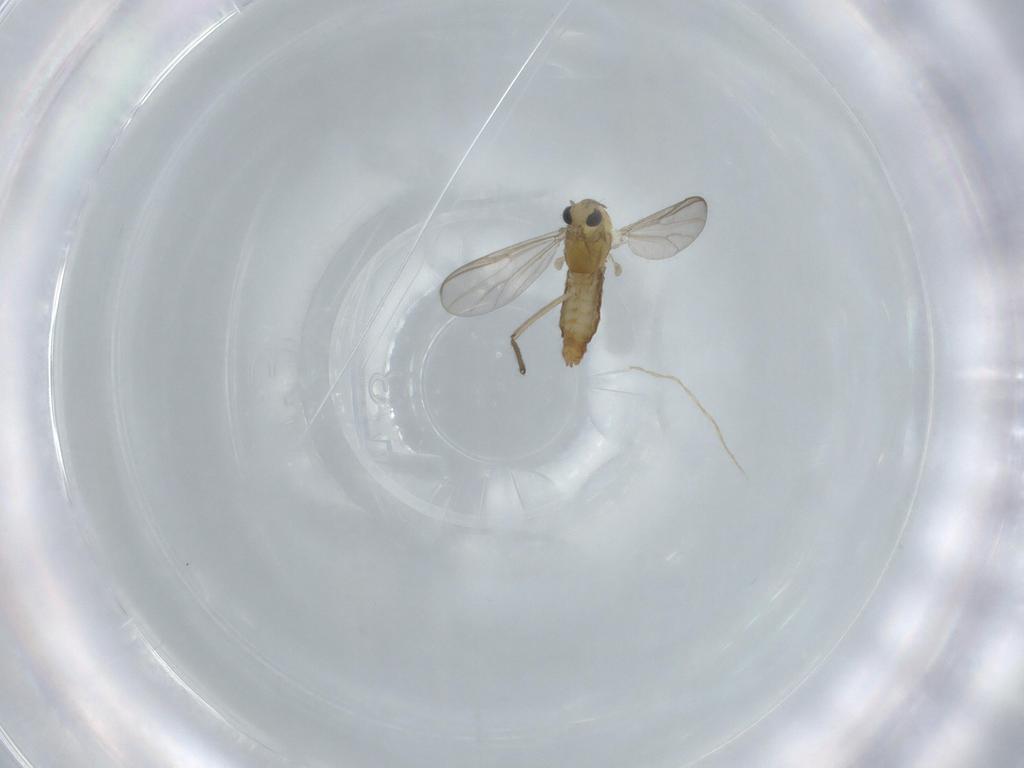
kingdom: Animalia
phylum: Arthropoda
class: Insecta
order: Diptera
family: Chironomidae
